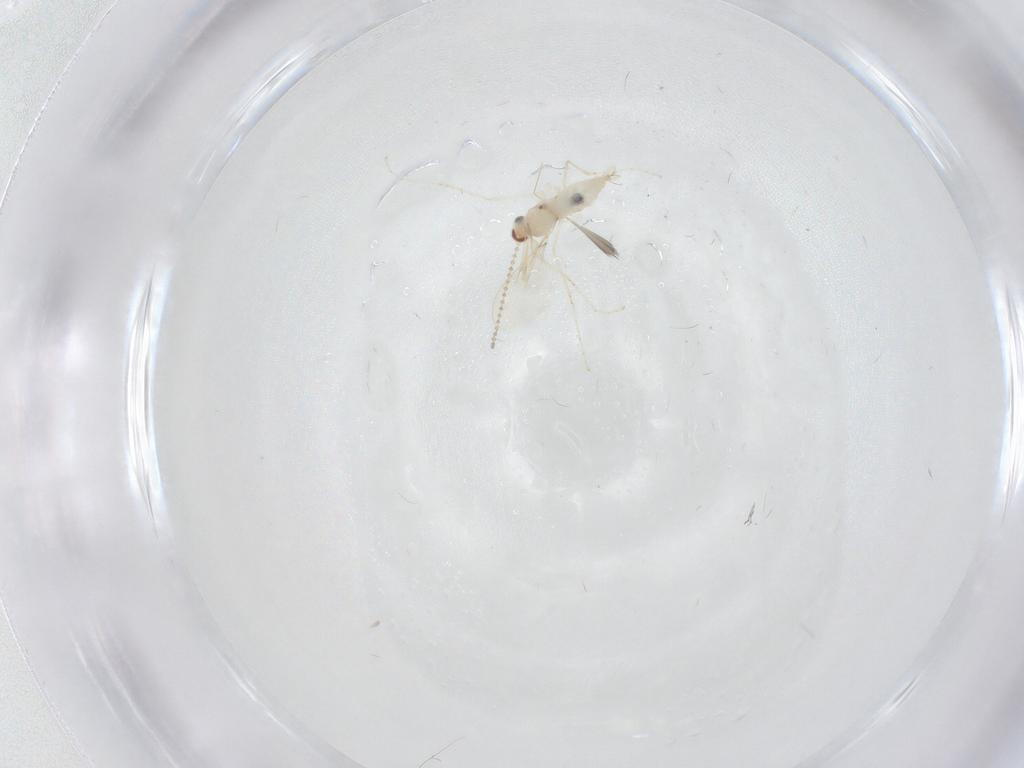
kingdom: Animalia
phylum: Arthropoda
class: Insecta
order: Diptera
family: Cecidomyiidae
